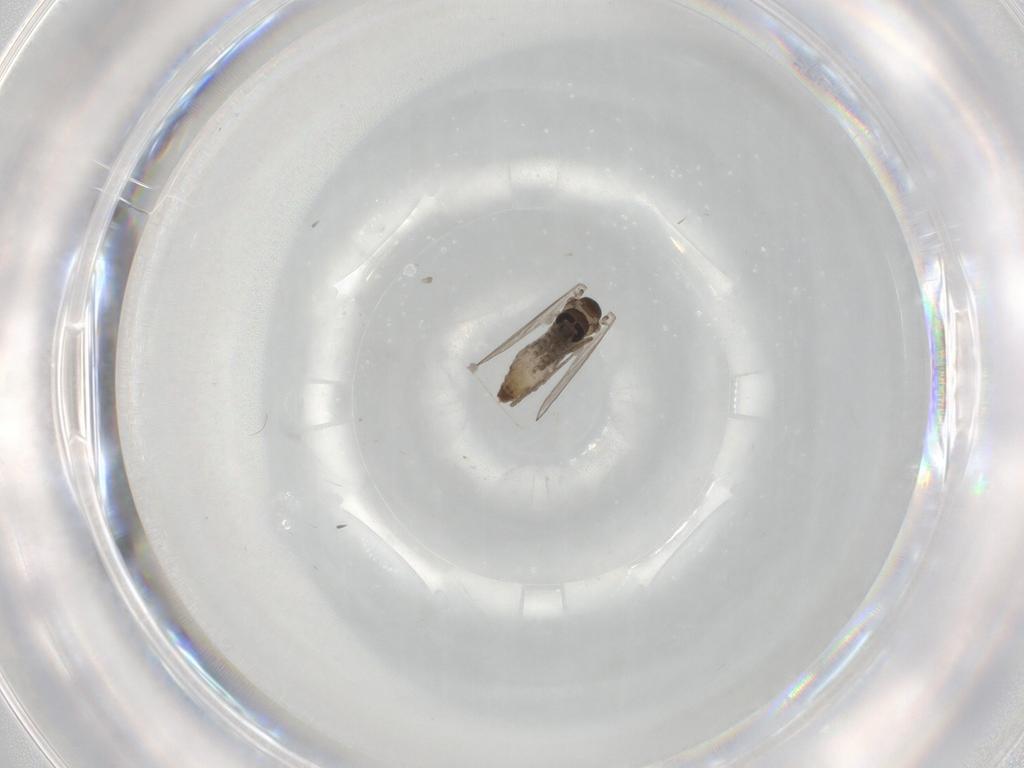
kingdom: Animalia
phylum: Arthropoda
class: Insecta
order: Diptera
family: Psychodidae
